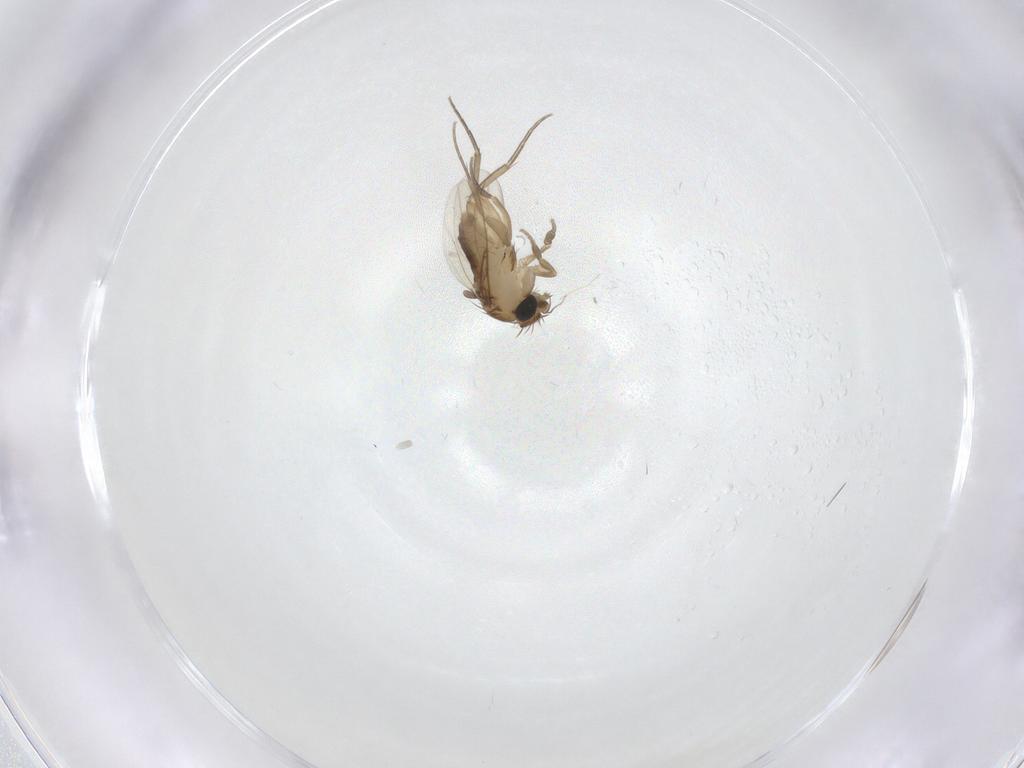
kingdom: Animalia
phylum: Arthropoda
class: Insecta
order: Diptera
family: Phoridae
